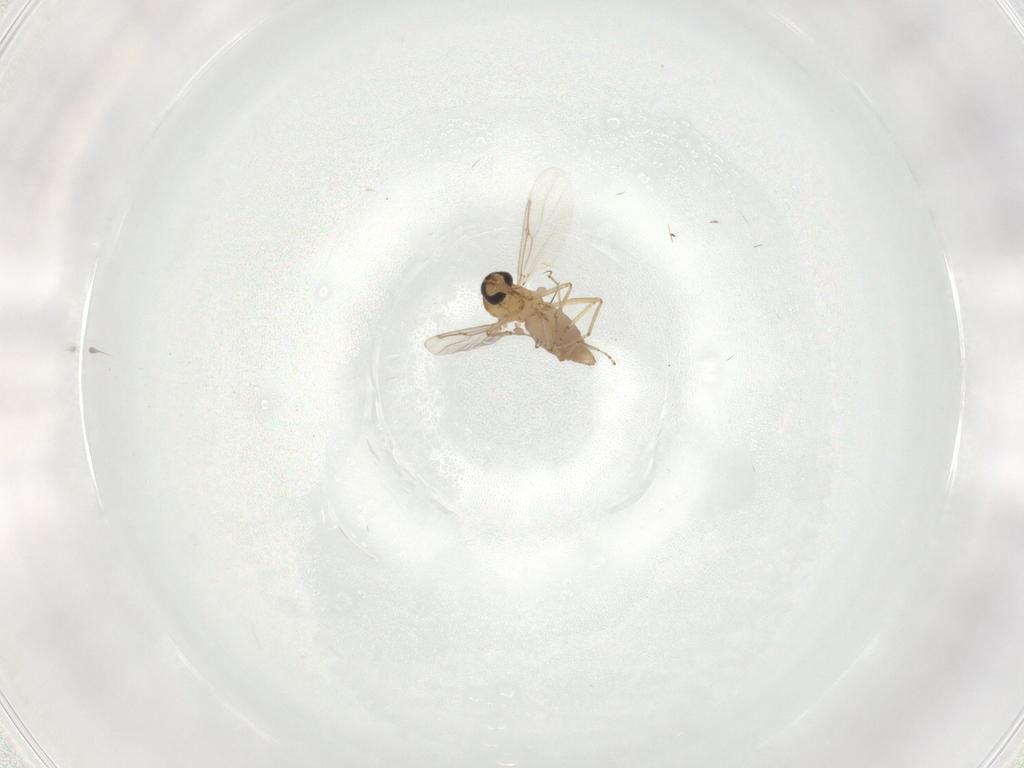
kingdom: Animalia
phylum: Arthropoda
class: Insecta
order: Diptera
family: Ceratopogonidae
